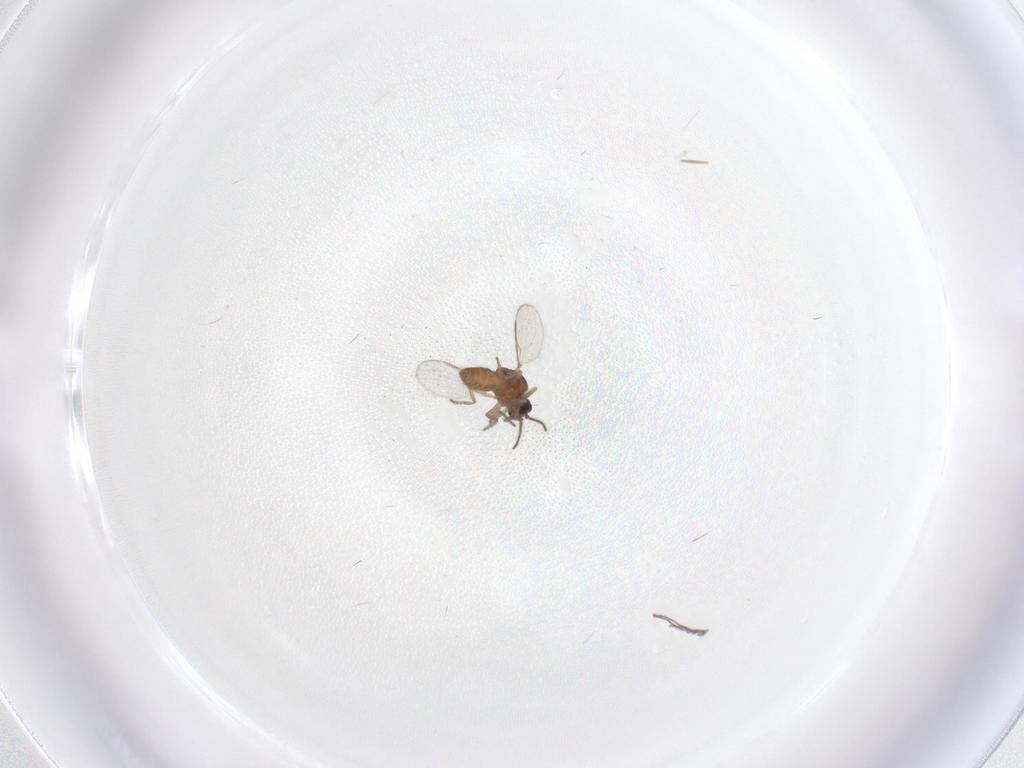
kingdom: Animalia
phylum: Arthropoda
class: Insecta
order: Diptera
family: Ceratopogonidae
